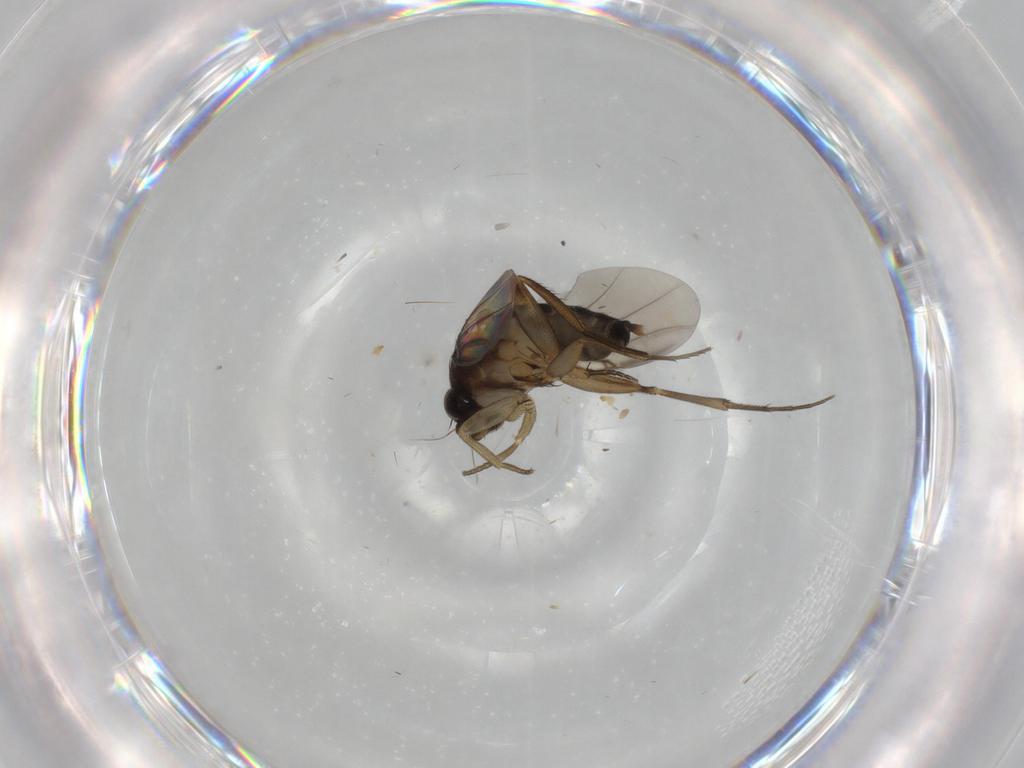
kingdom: Animalia
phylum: Arthropoda
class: Insecta
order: Diptera
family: Phoridae
